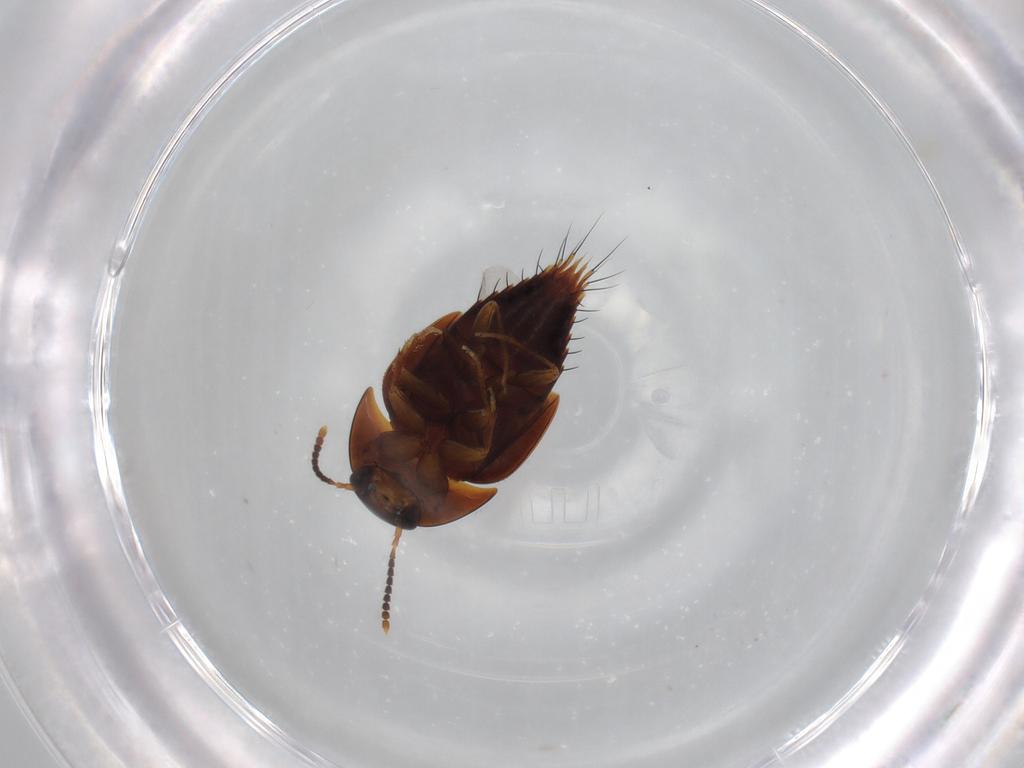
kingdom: Animalia
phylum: Arthropoda
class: Insecta
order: Coleoptera
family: Staphylinidae
